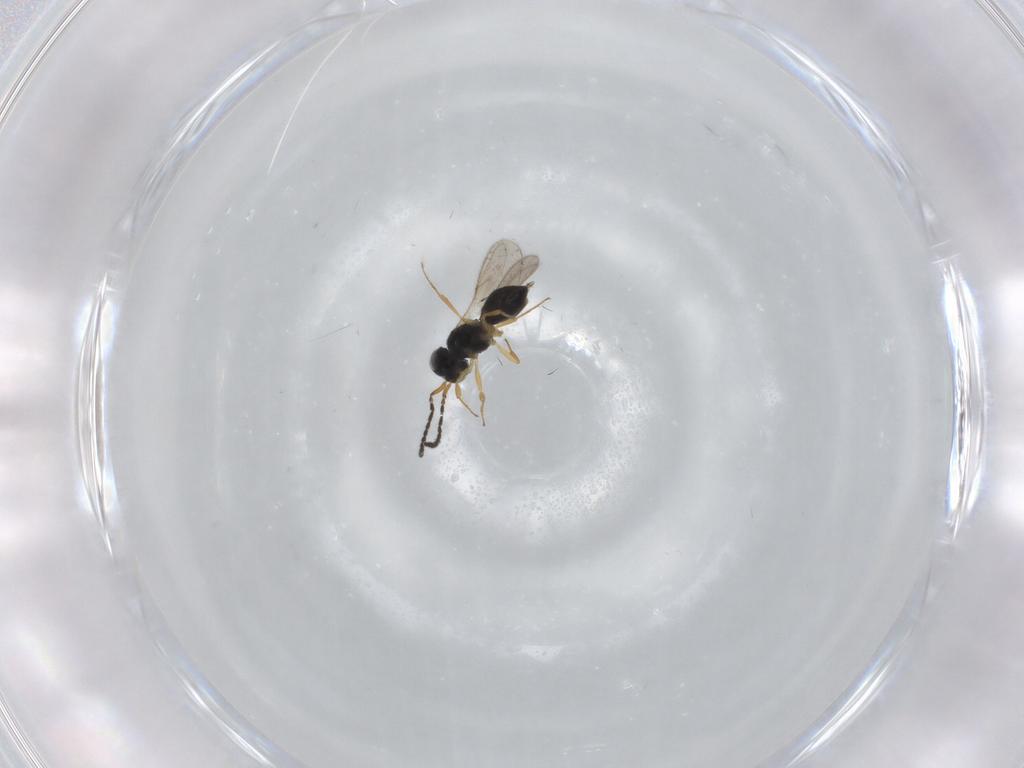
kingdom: Animalia
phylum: Arthropoda
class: Insecta
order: Hymenoptera
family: Scelionidae
